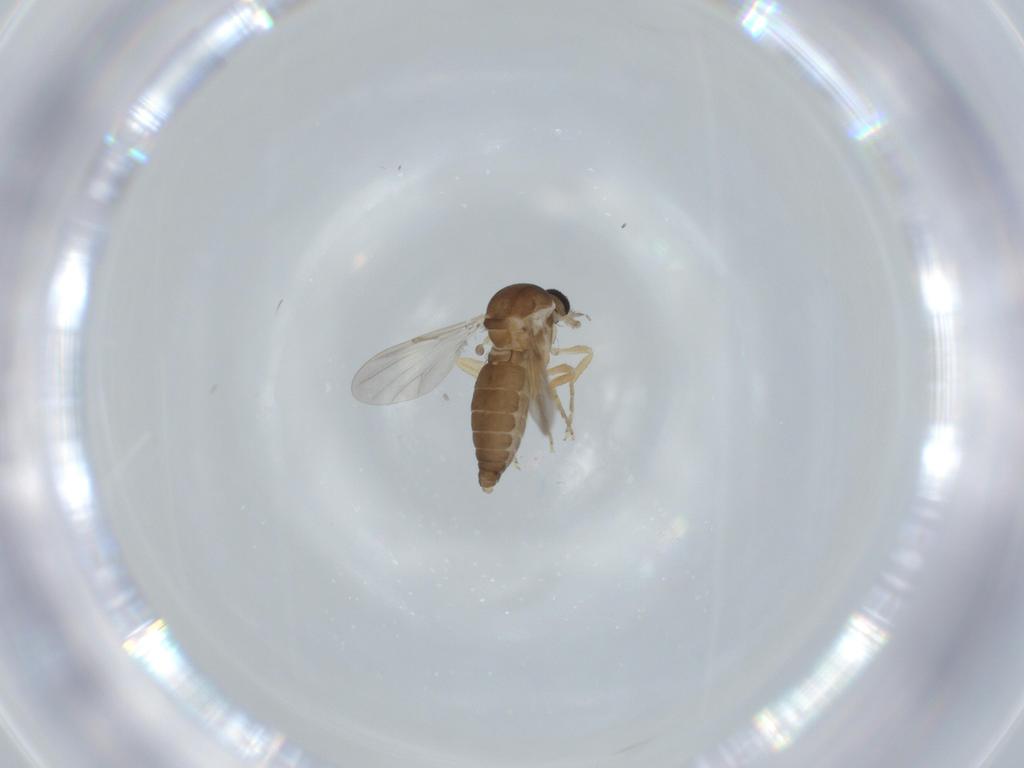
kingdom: Animalia
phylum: Arthropoda
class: Insecta
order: Diptera
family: Ceratopogonidae
